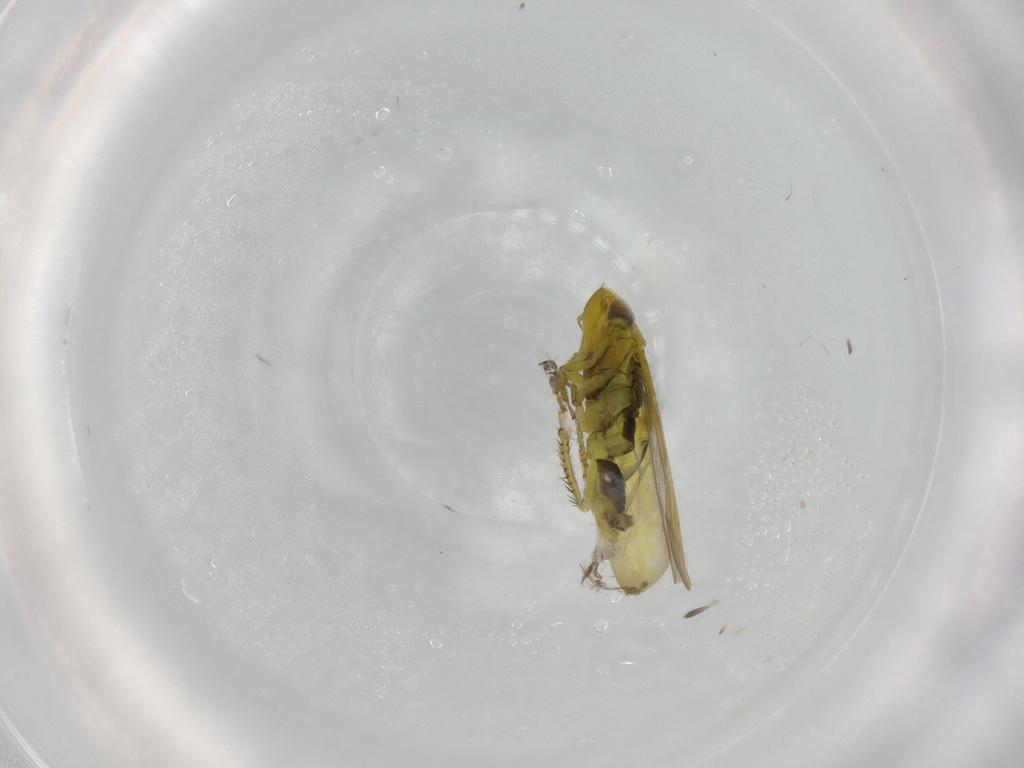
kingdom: Animalia
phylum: Arthropoda
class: Insecta
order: Hemiptera
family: Cicadellidae
